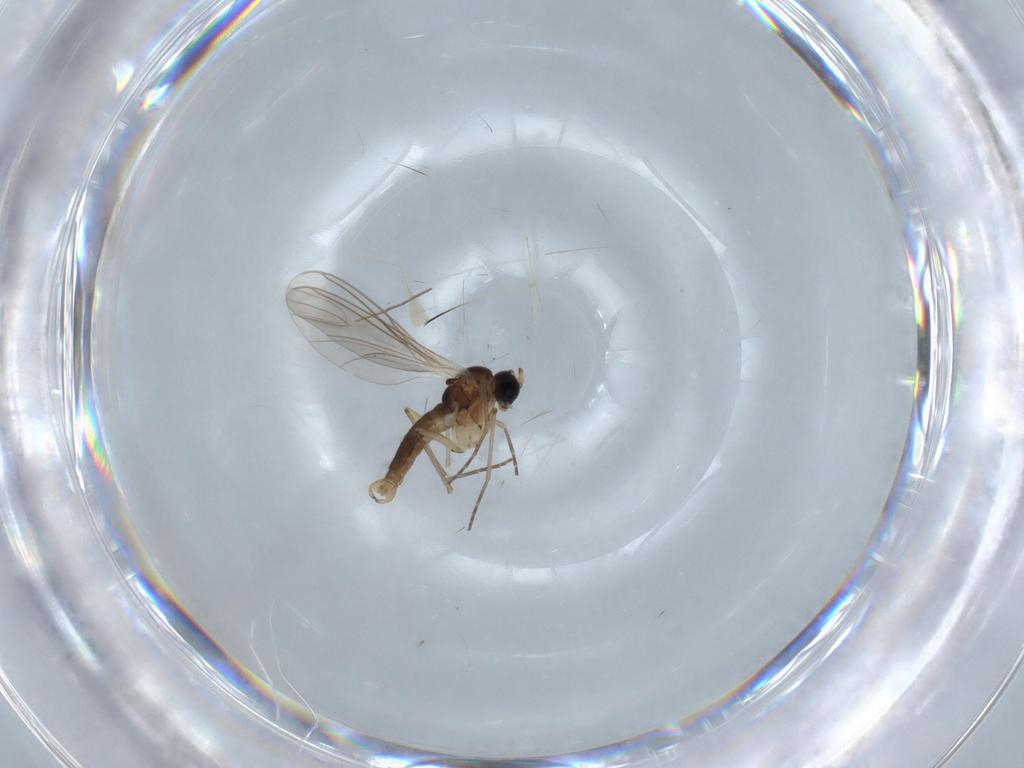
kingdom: Animalia
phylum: Arthropoda
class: Insecta
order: Diptera
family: Sciaridae
